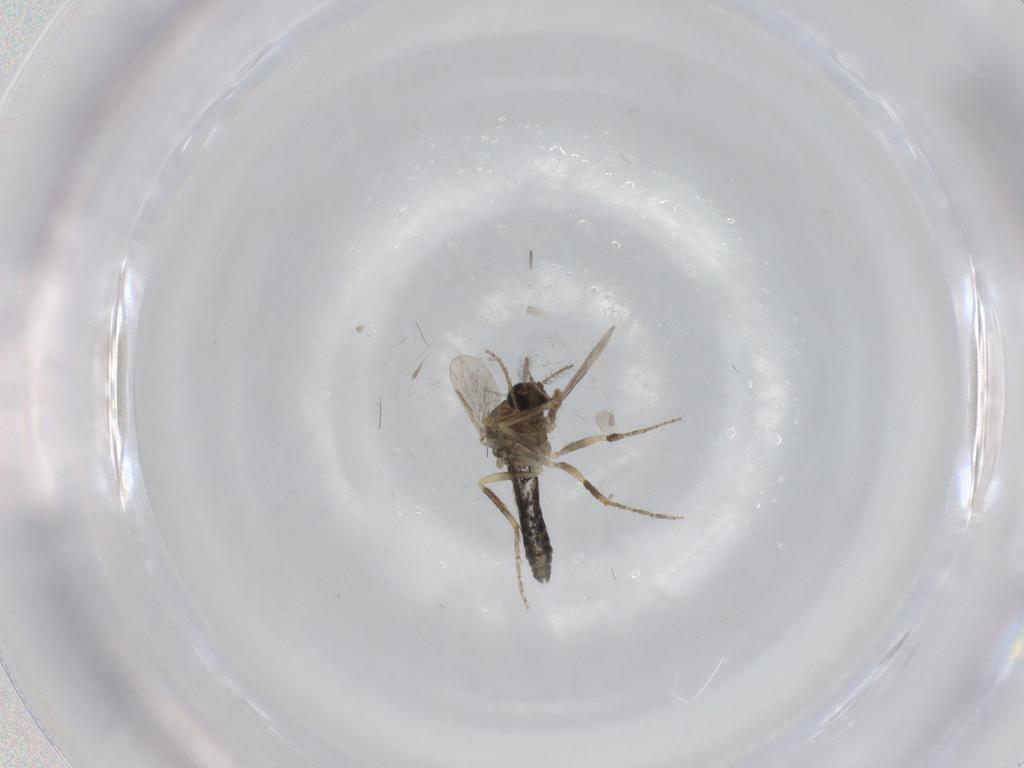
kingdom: Animalia
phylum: Arthropoda
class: Insecta
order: Diptera
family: Ceratopogonidae
